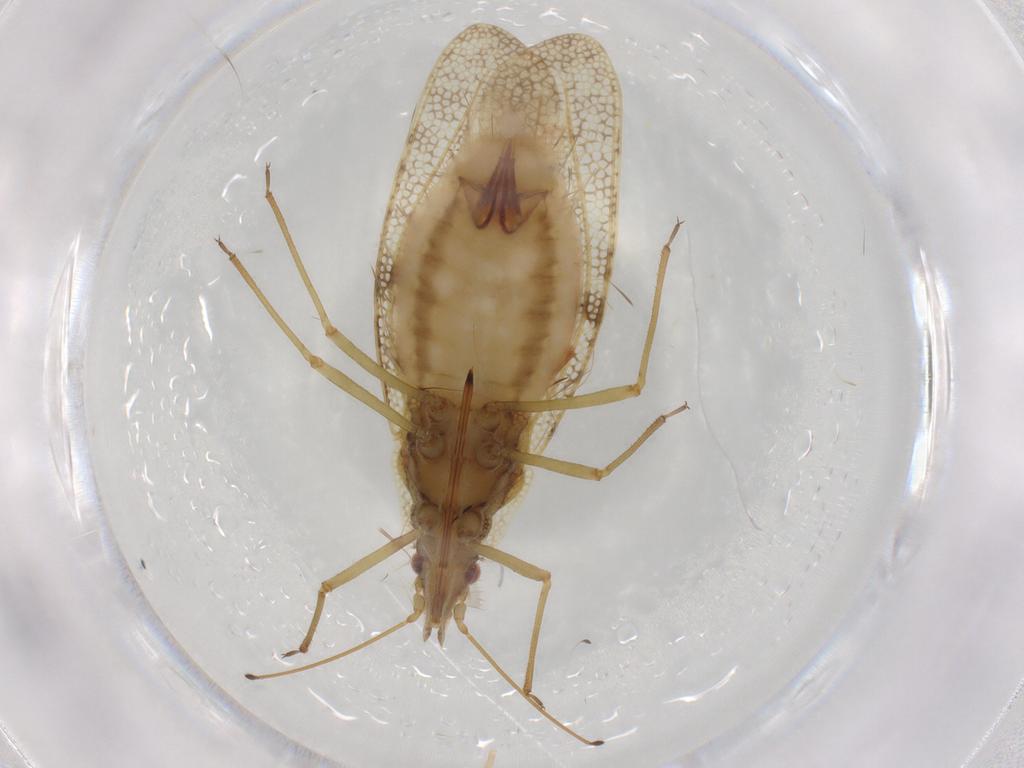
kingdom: Animalia
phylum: Arthropoda
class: Insecta
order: Hemiptera
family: Tingidae
